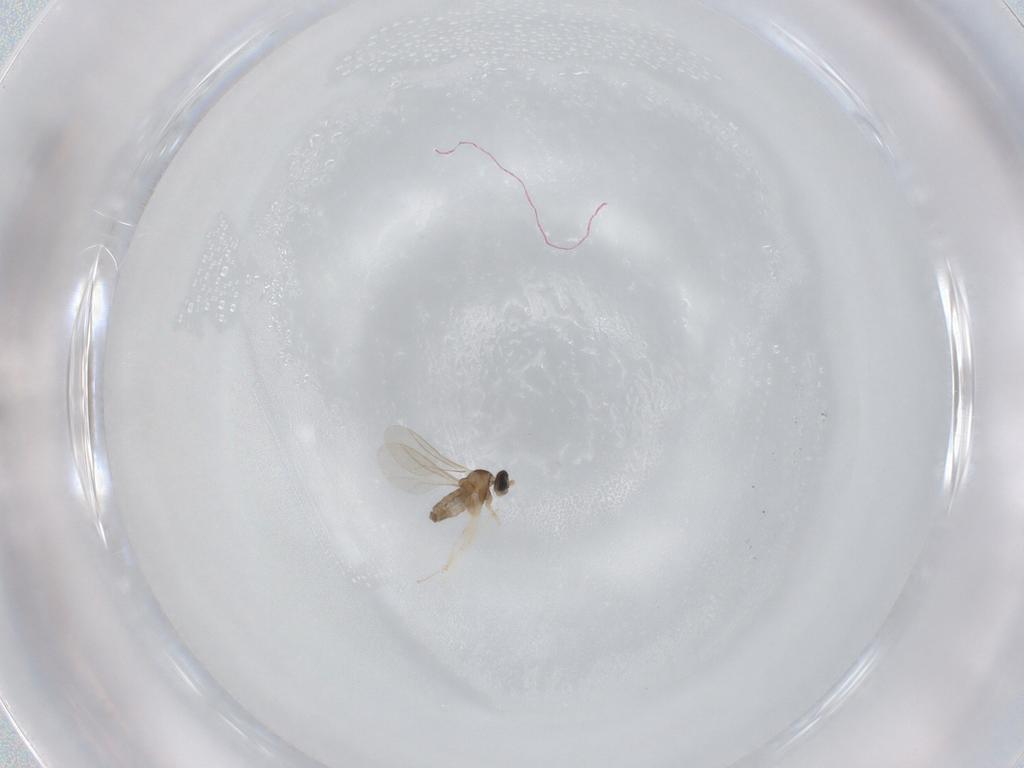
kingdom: Animalia
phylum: Arthropoda
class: Insecta
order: Diptera
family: Cecidomyiidae
